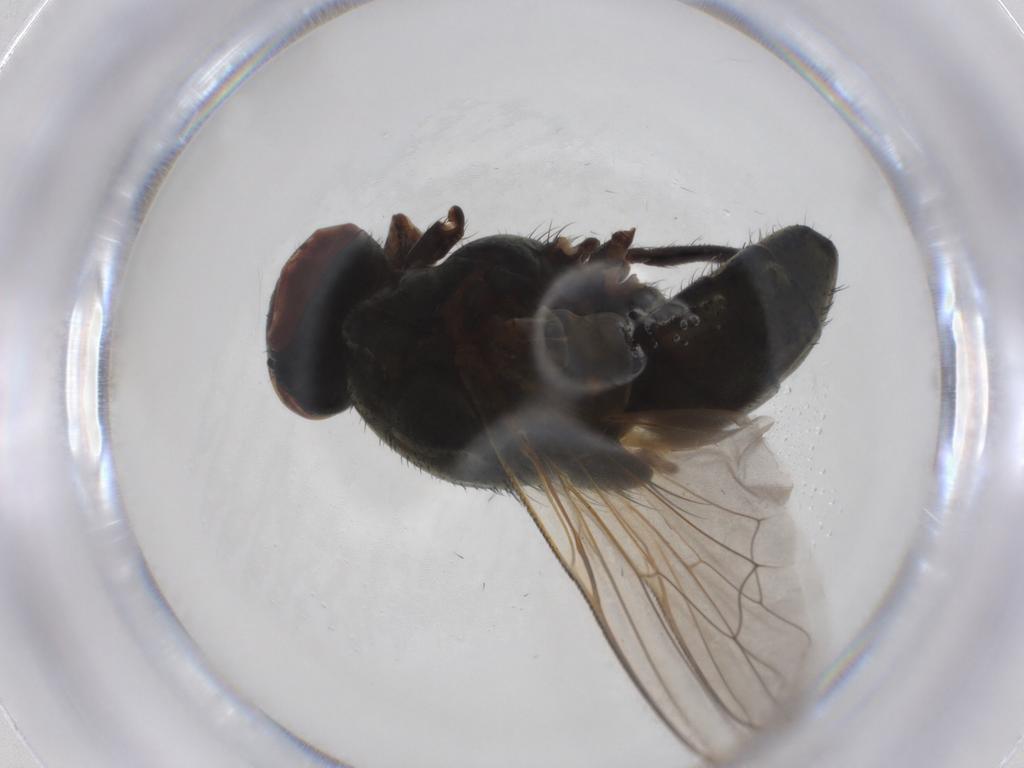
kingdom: Animalia
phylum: Arthropoda
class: Insecta
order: Diptera
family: Muscidae
